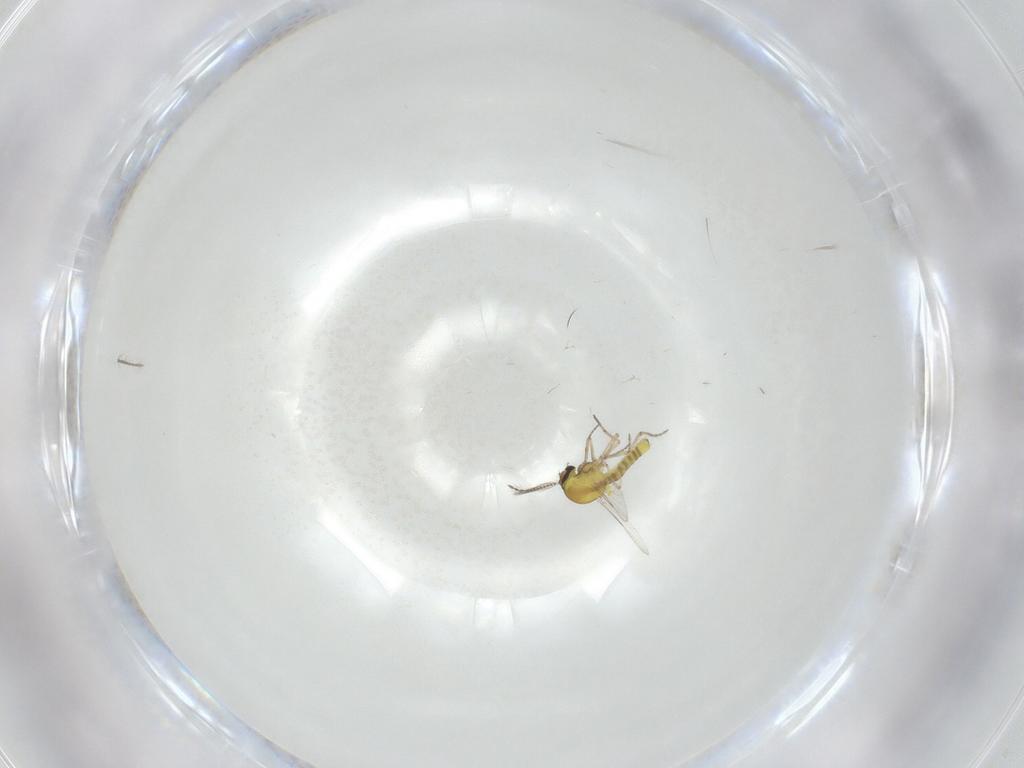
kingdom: Animalia
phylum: Arthropoda
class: Insecta
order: Diptera
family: Ceratopogonidae
